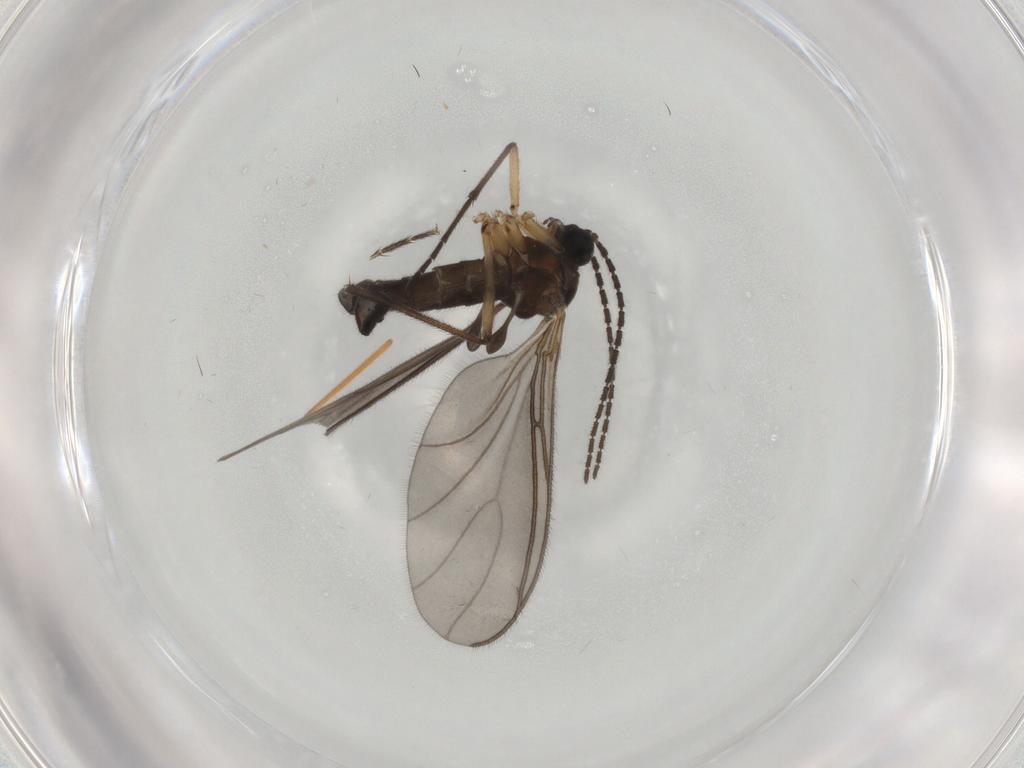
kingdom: Animalia
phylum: Arthropoda
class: Insecta
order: Diptera
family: Sciaridae
